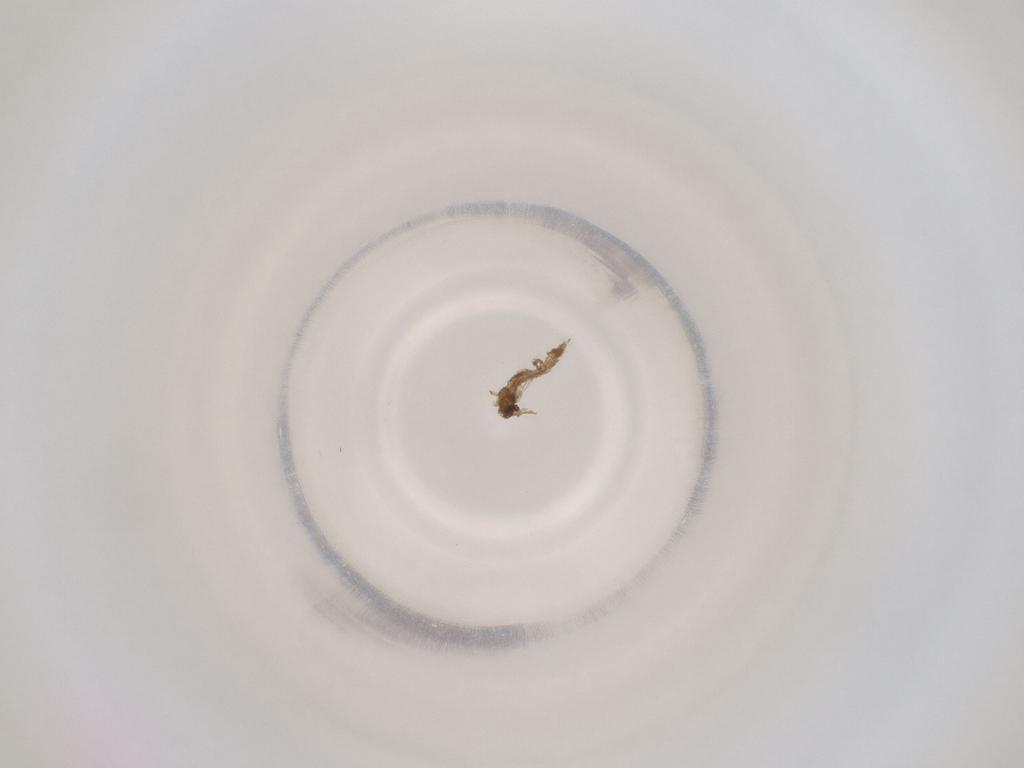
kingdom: Animalia
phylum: Arthropoda
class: Insecta
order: Diptera
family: Cecidomyiidae
